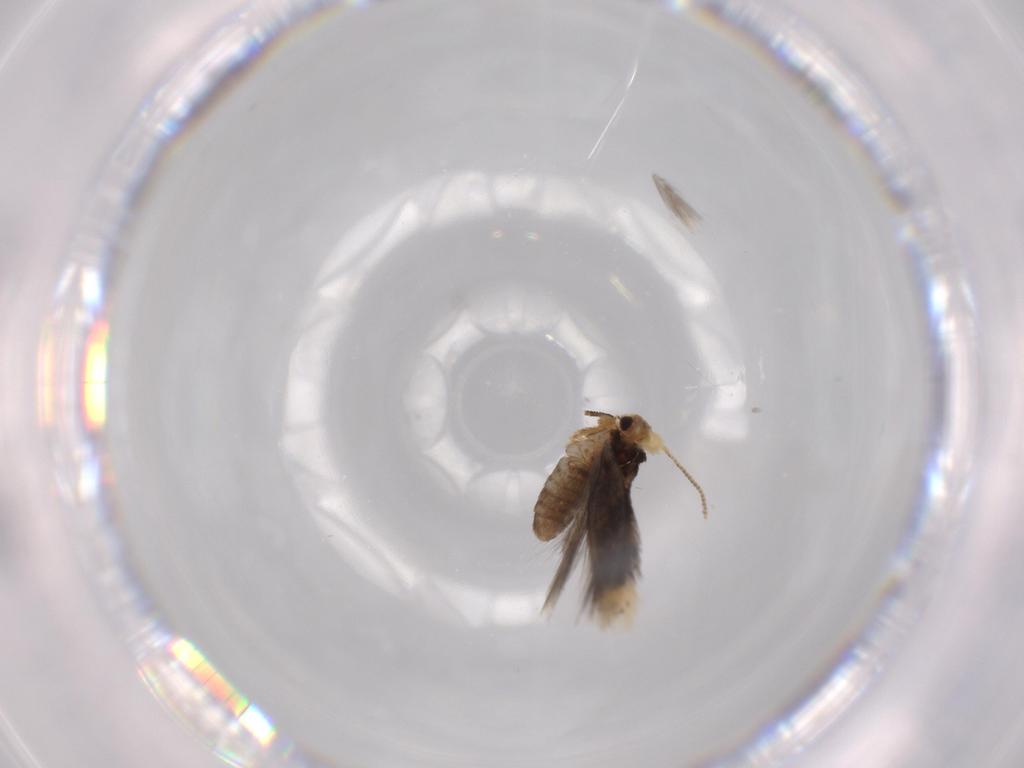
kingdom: Animalia
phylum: Arthropoda
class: Insecta
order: Lepidoptera
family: Nepticulidae
